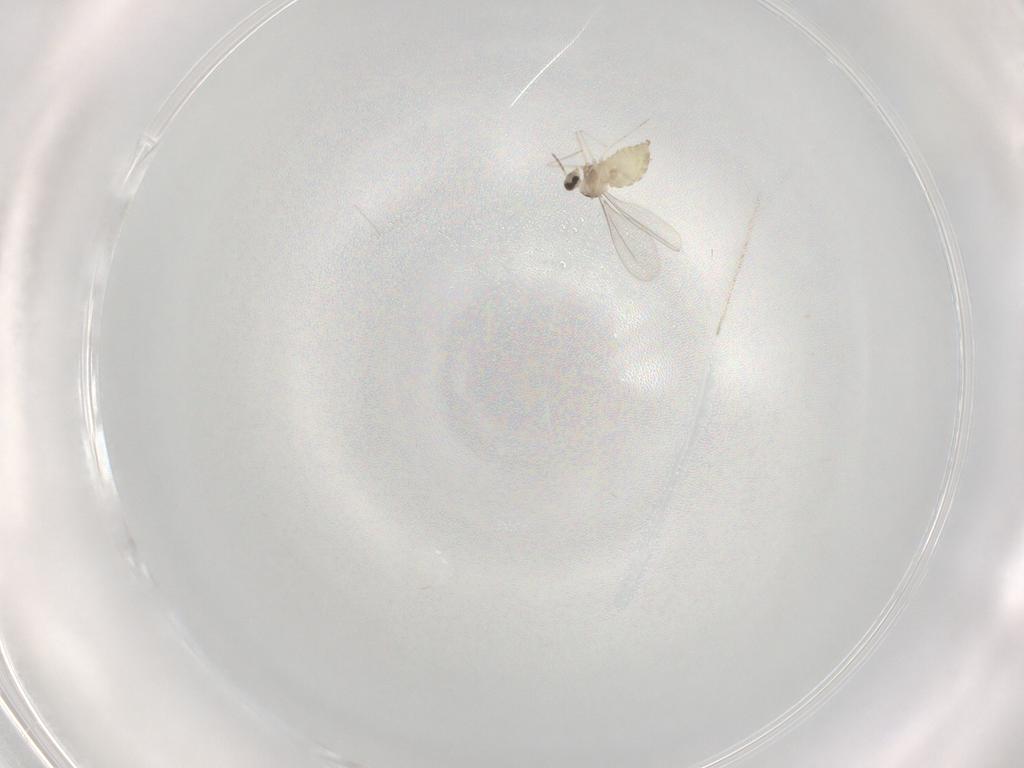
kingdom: Animalia
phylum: Arthropoda
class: Insecta
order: Diptera
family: Cecidomyiidae
